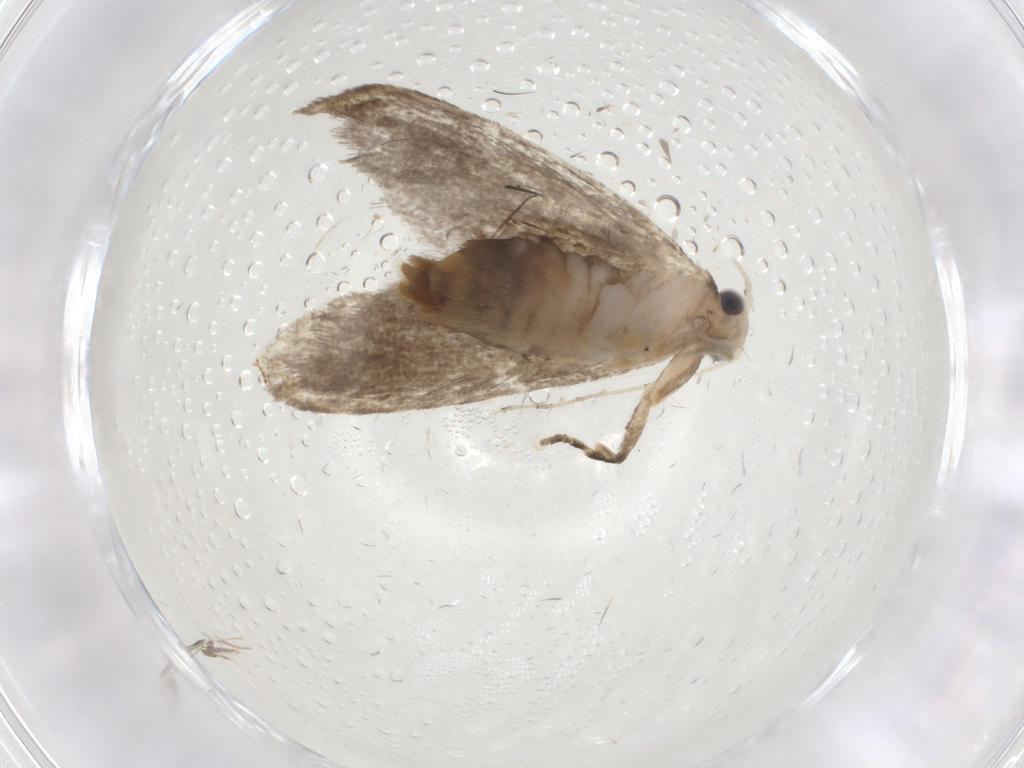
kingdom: Animalia
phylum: Arthropoda
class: Insecta
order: Lepidoptera
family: Tineidae
